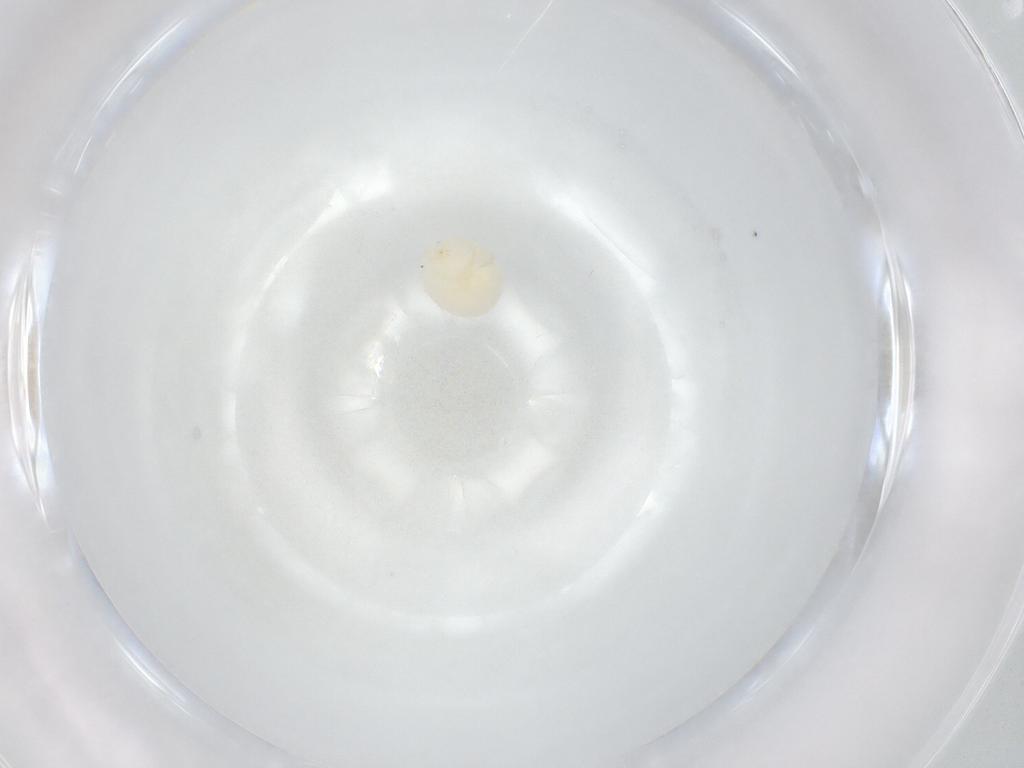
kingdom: Animalia
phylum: Arthropoda
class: Arachnida
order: Trombidiformes
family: Hydryphantidae
